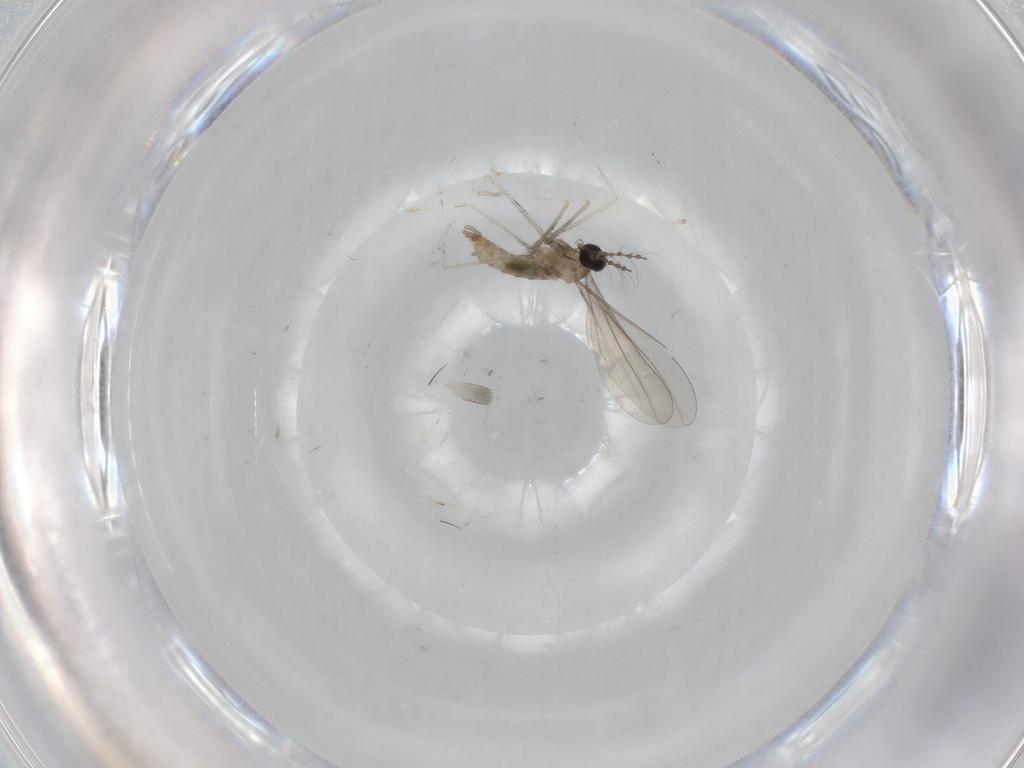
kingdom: Animalia
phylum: Arthropoda
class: Insecta
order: Diptera
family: Cecidomyiidae
